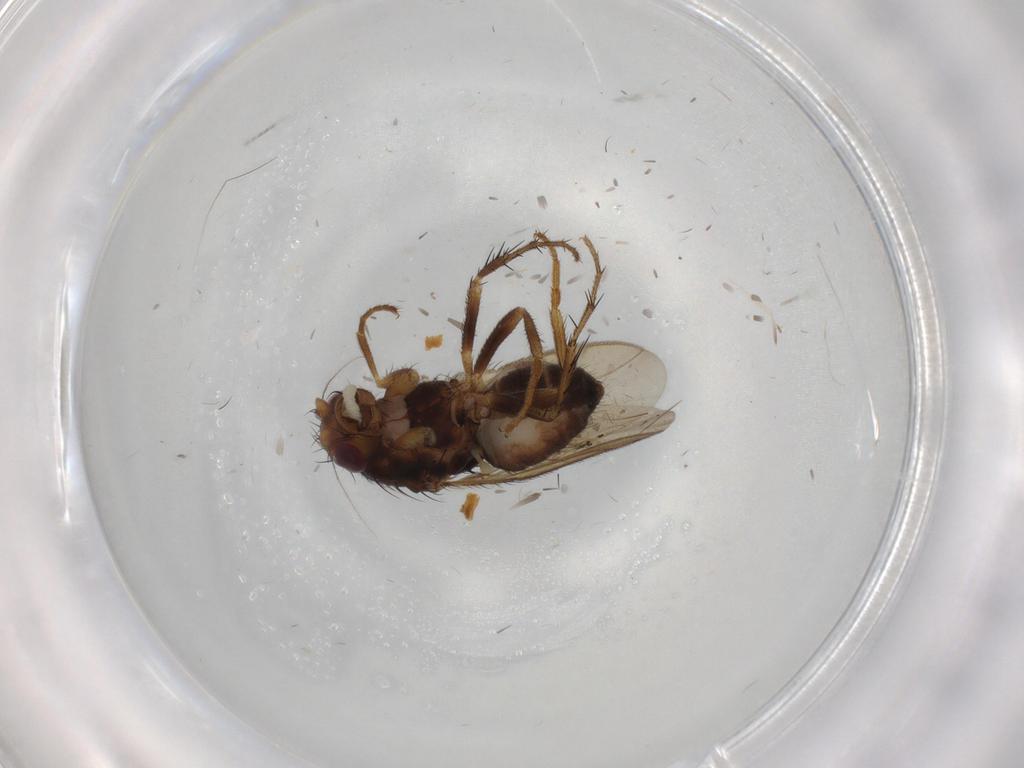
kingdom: Animalia
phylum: Arthropoda
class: Insecta
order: Diptera
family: Sphaeroceridae
